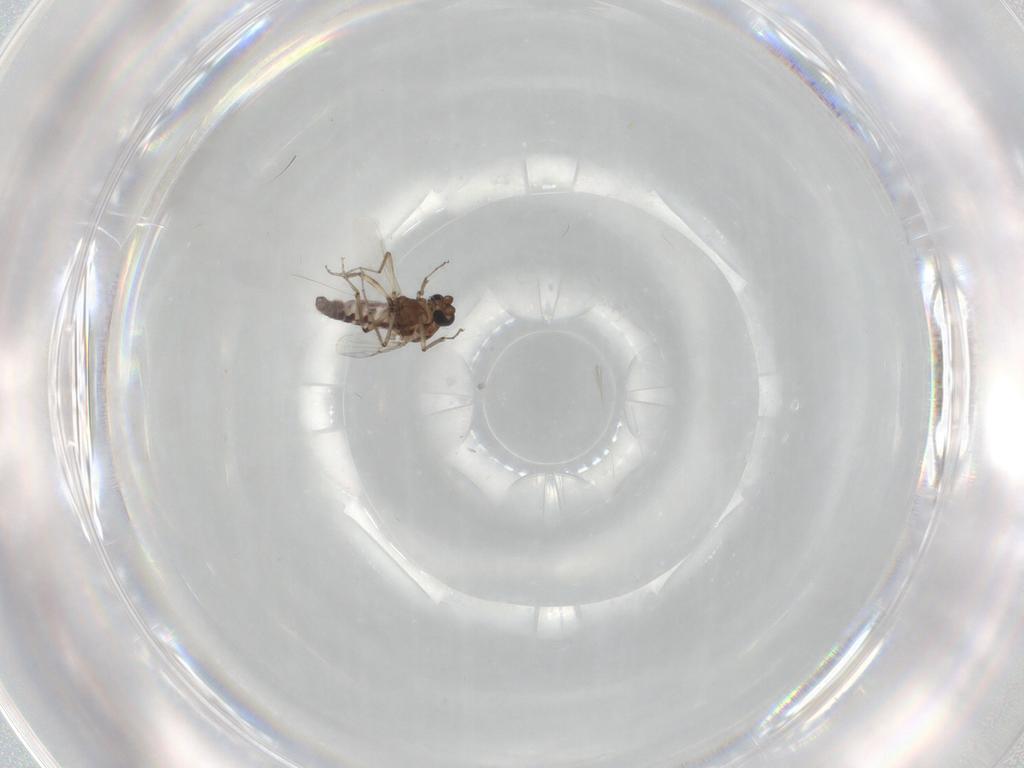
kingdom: Animalia
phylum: Arthropoda
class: Insecta
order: Diptera
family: Ceratopogonidae
